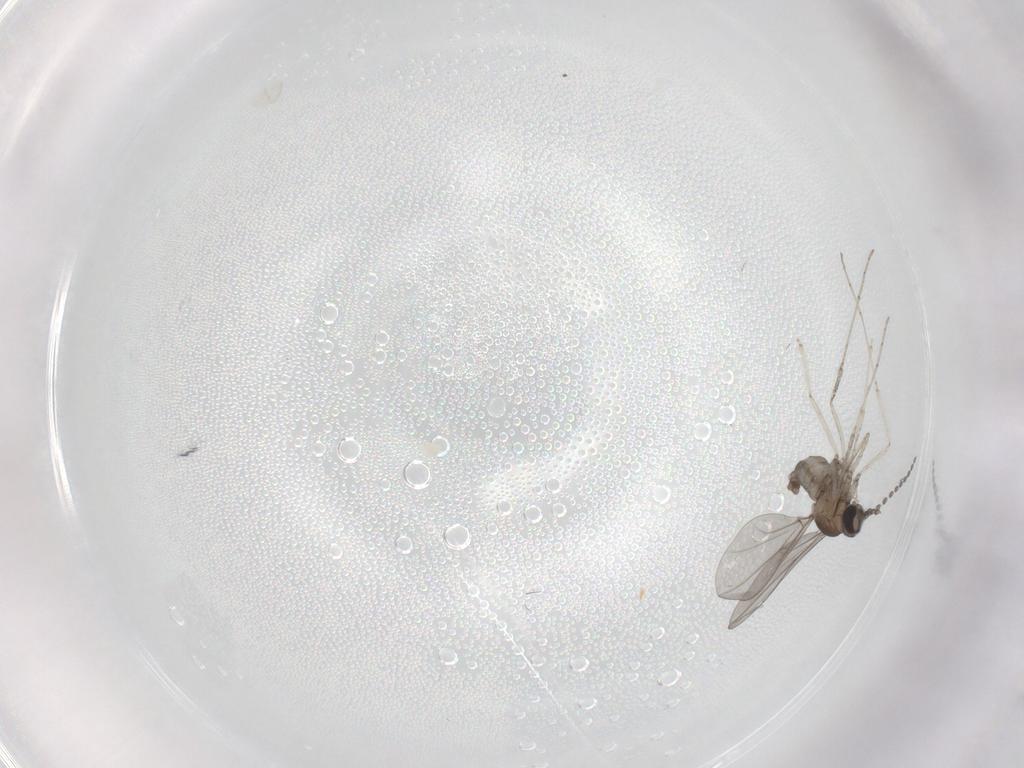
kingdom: Animalia
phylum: Arthropoda
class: Insecta
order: Diptera
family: Cecidomyiidae
